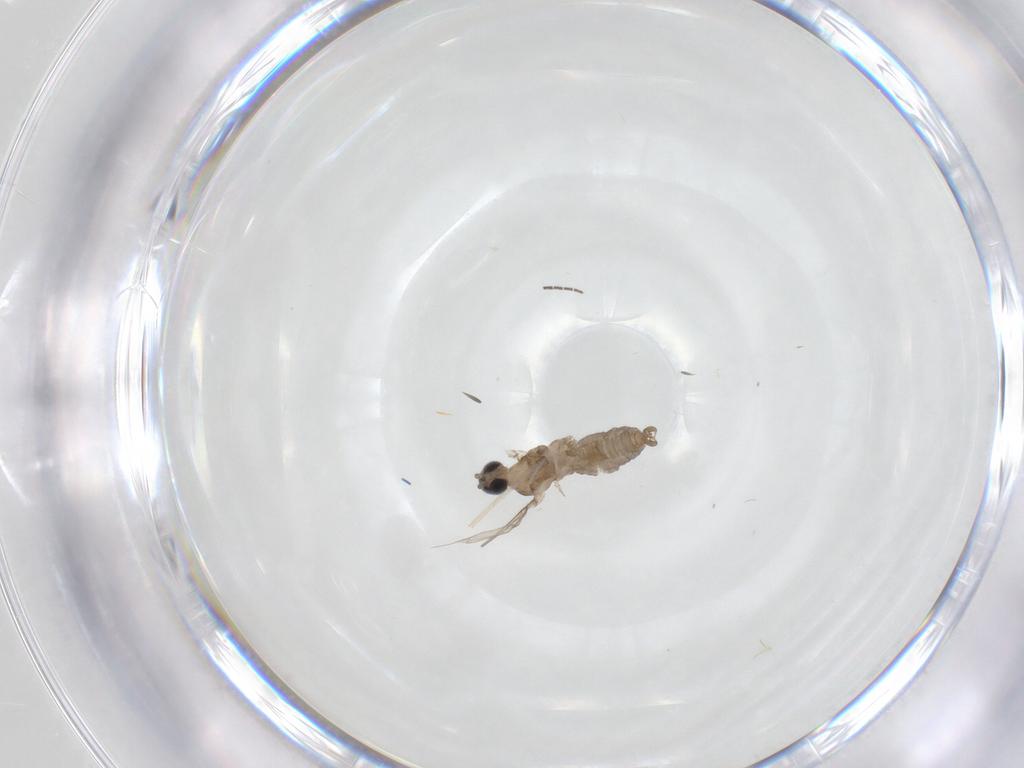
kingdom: Animalia
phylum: Arthropoda
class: Insecta
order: Diptera
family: Cecidomyiidae
